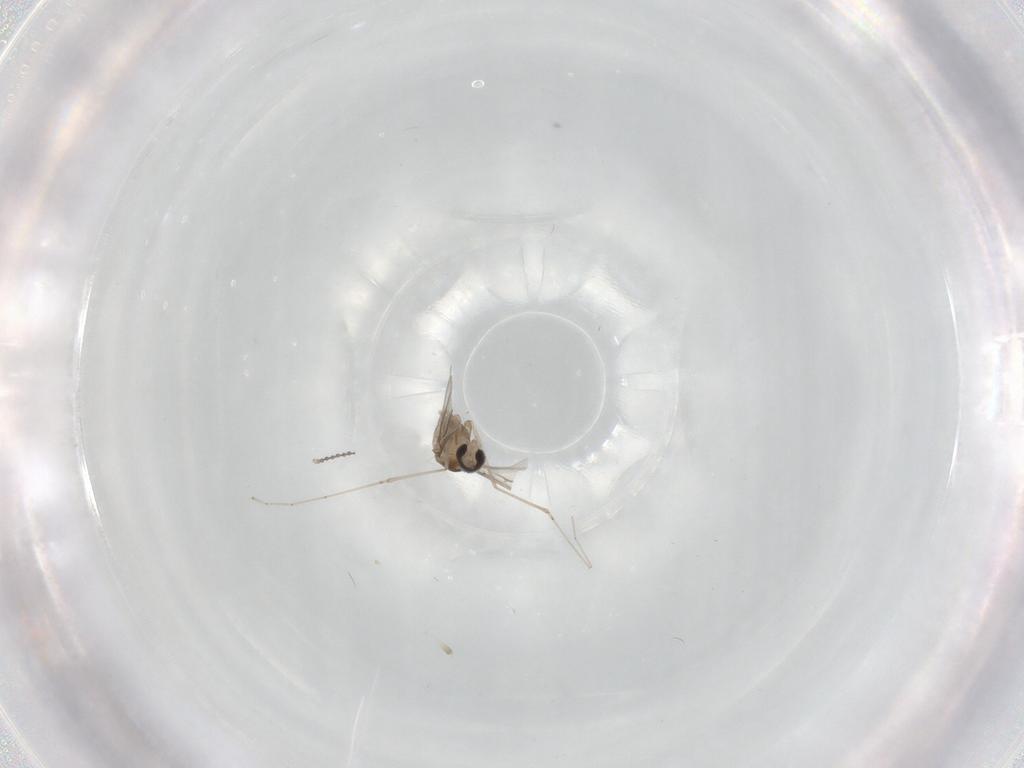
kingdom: Animalia
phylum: Arthropoda
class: Insecta
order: Diptera
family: Cecidomyiidae
